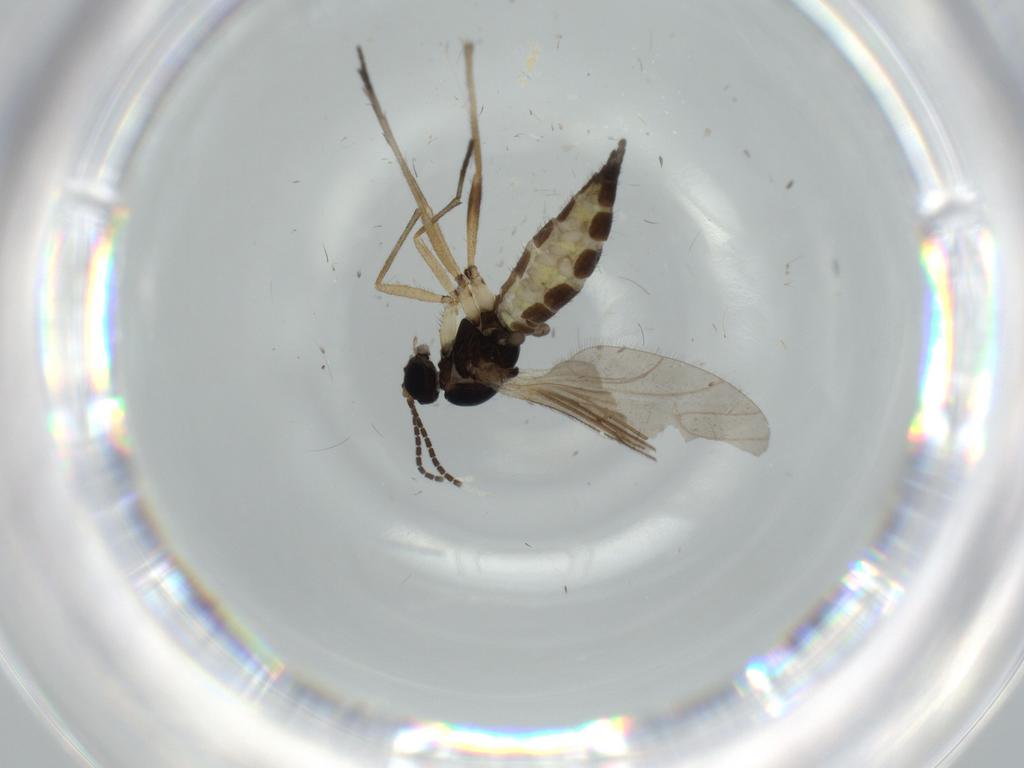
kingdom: Animalia
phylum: Arthropoda
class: Insecta
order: Diptera
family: Sciaridae
